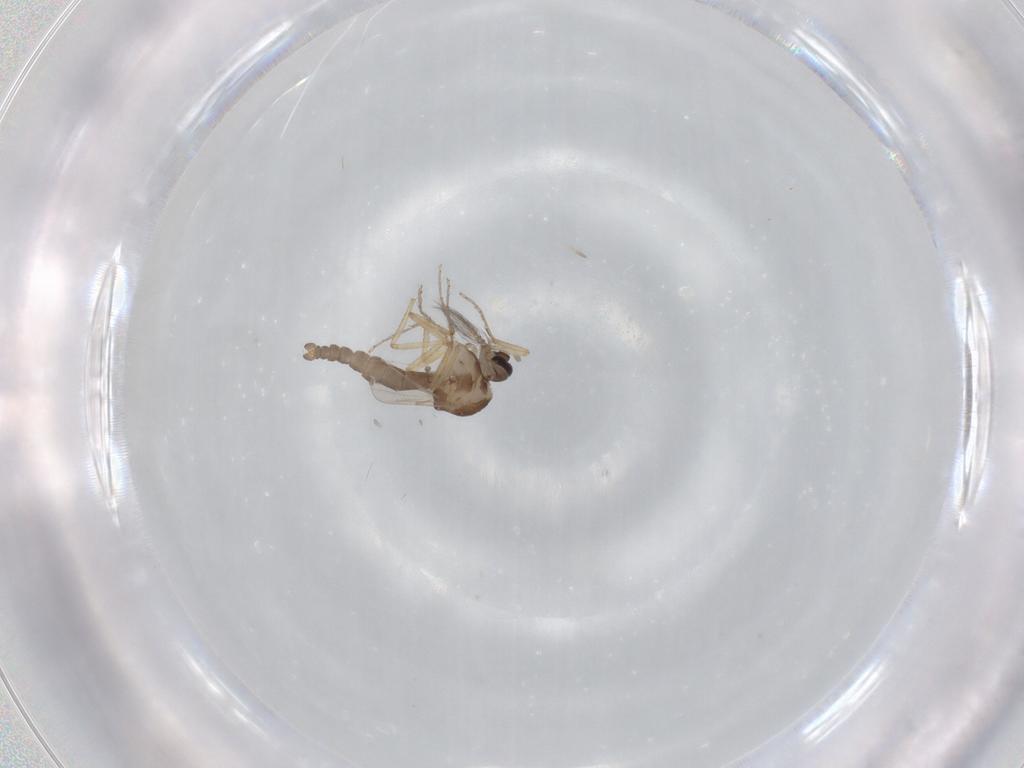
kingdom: Animalia
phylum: Arthropoda
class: Insecta
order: Diptera
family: Ceratopogonidae
